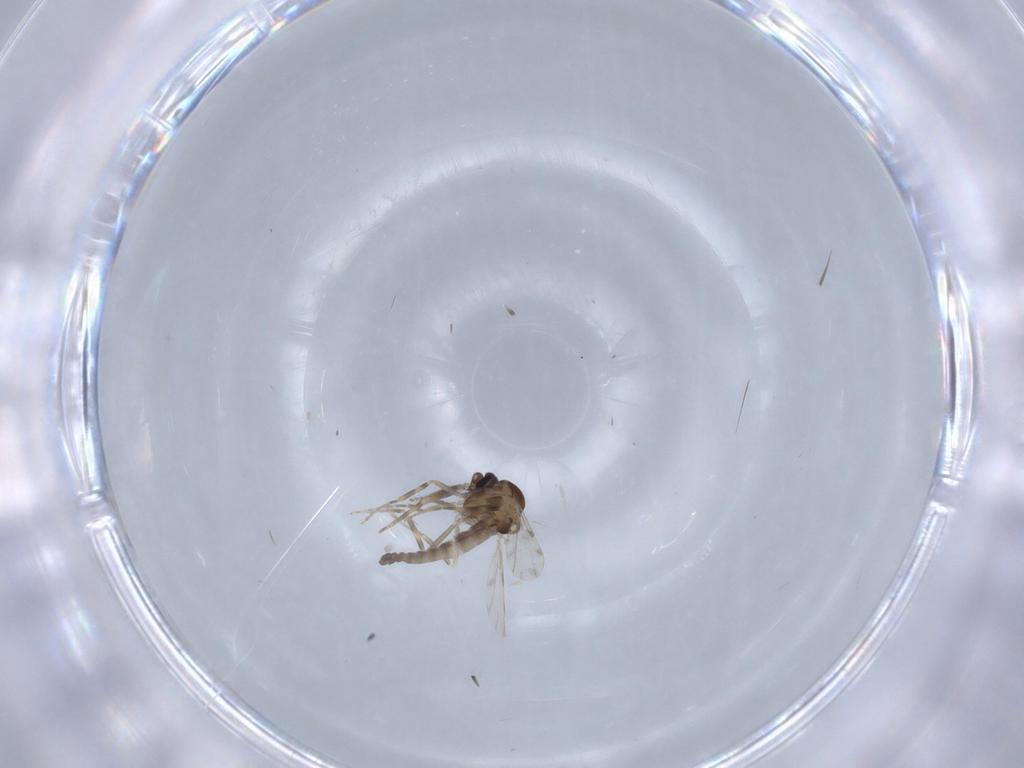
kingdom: Animalia
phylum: Arthropoda
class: Insecta
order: Diptera
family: Ceratopogonidae
